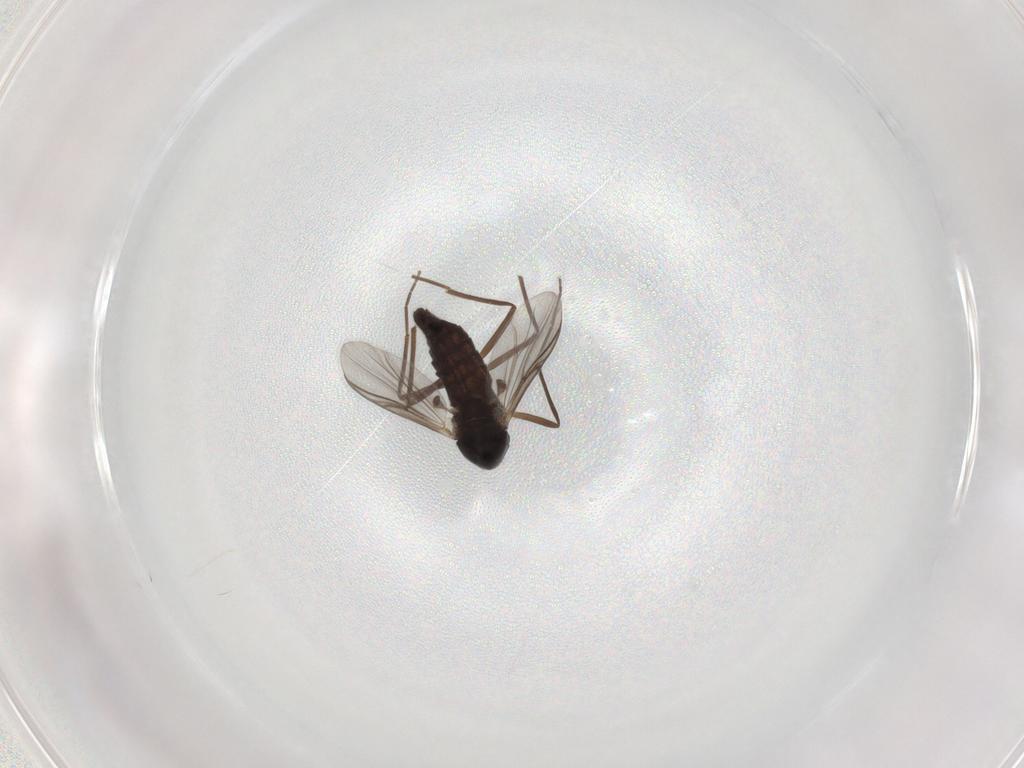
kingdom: Animalia
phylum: Arthropoda
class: Insecta
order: Diptera
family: Chironomidae
